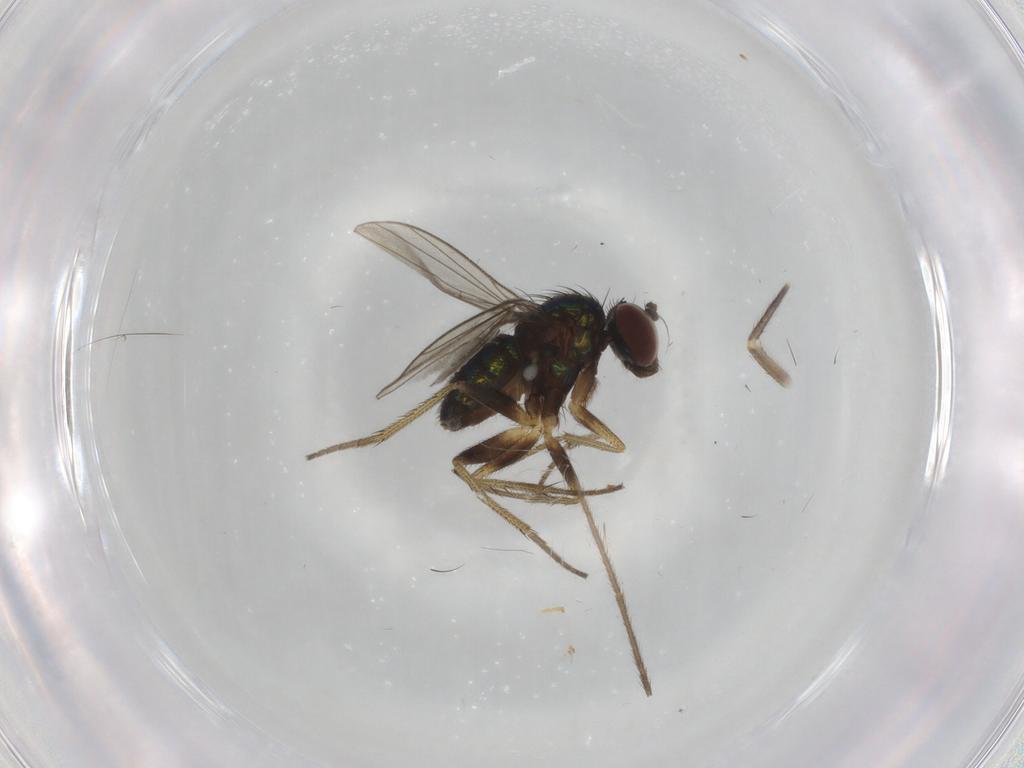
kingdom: Animalia
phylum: Arthropoda
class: Insecta
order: Diptera
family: Limoniidae
